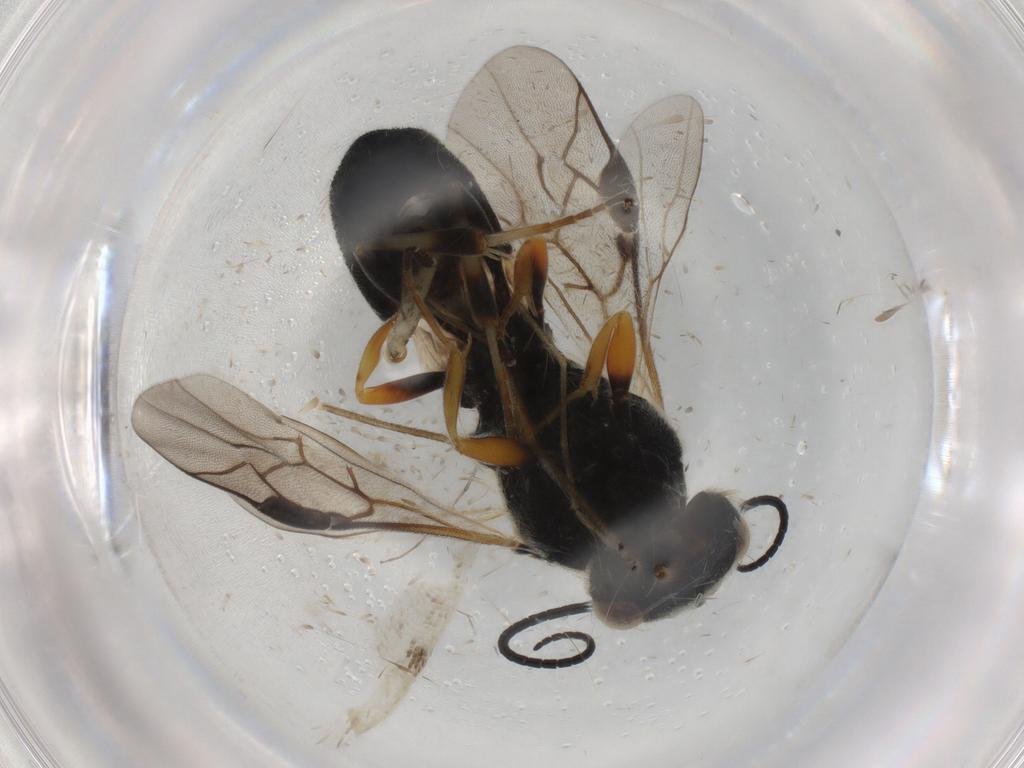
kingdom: Animalia
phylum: Arthropoda
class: Insecta
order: Hymenoptera
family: Braconidae
